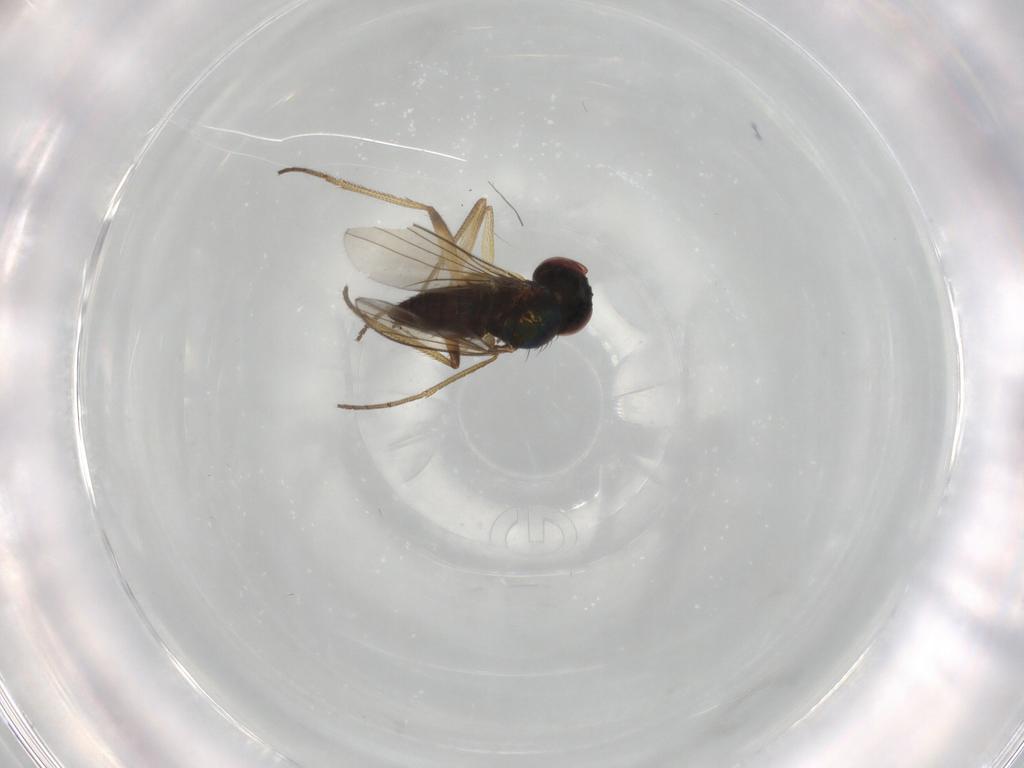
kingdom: Animalia
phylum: Arthropoda
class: Insecta
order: Diptera
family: Dolichopodidae
